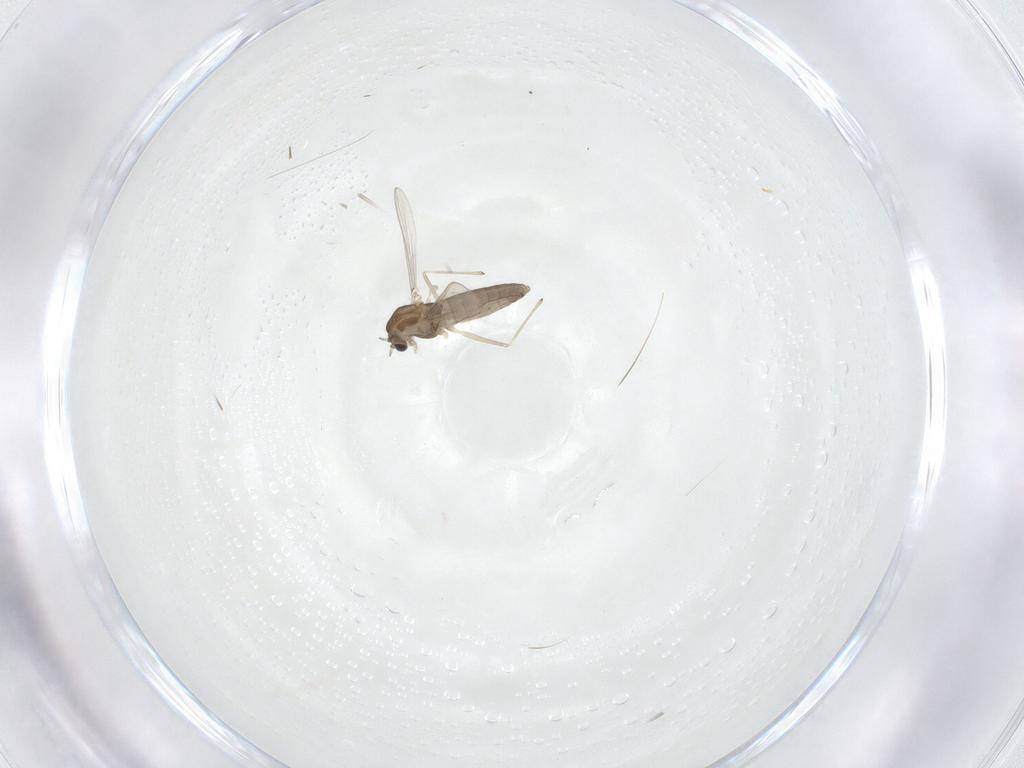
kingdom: Animalia
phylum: Arthropoda
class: Insecta
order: Diptera
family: Chironomidae
